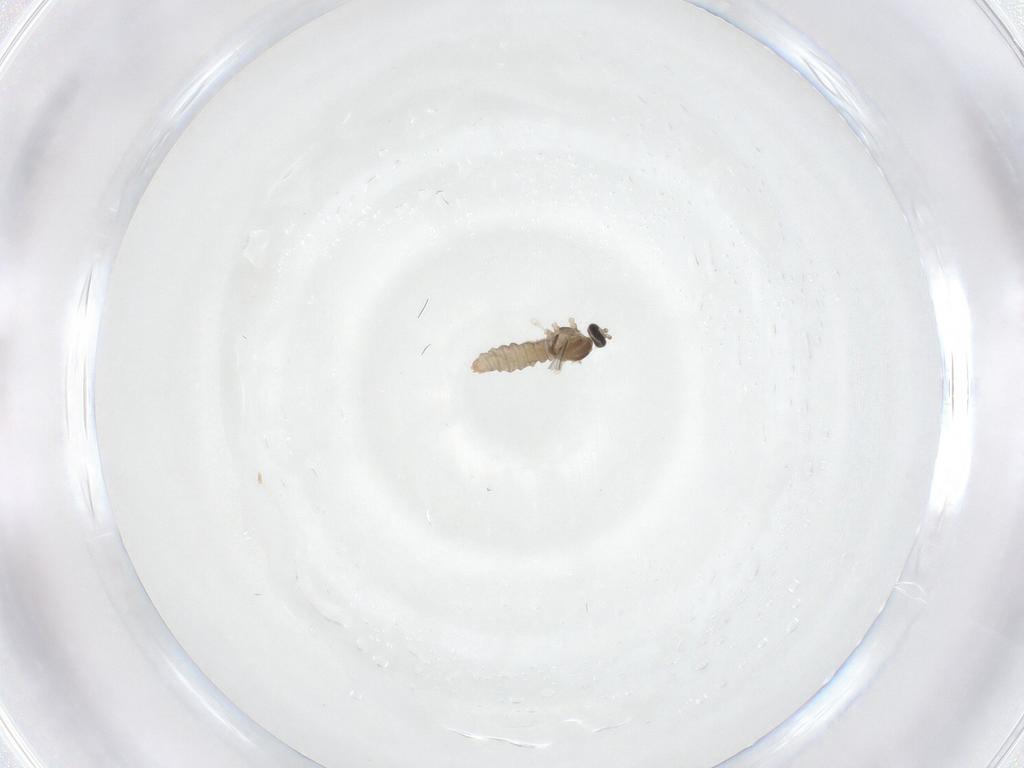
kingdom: Animalia
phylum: Arthropoda
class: Insecta
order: Diptera
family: Cecidomyiidae
